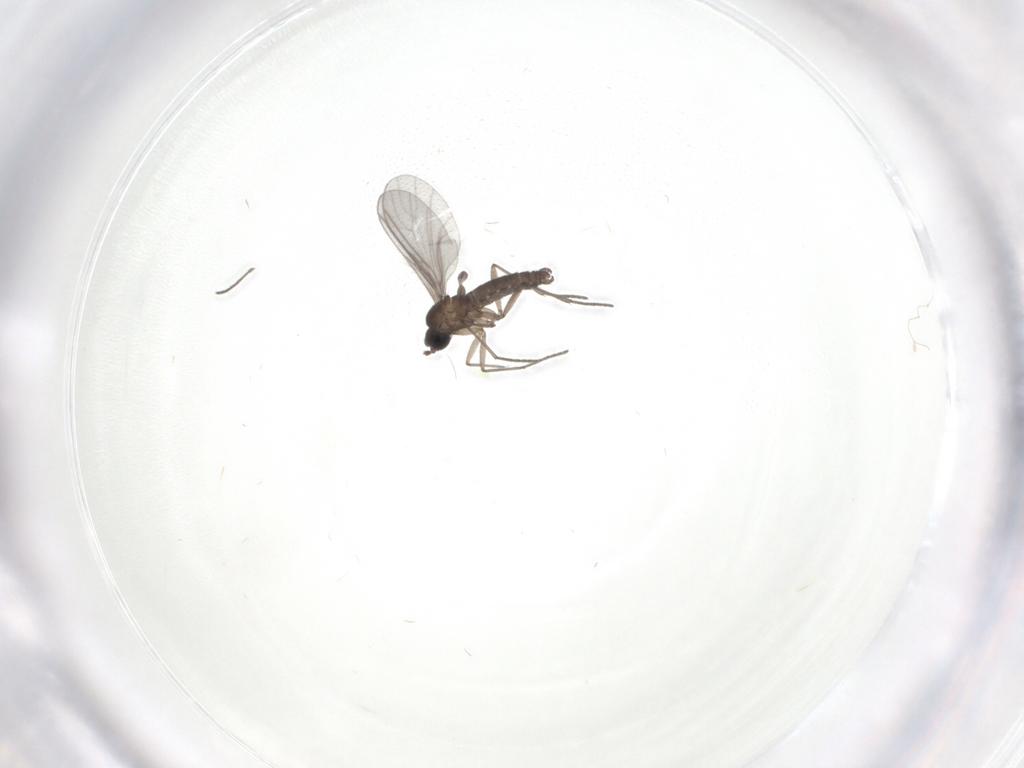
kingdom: Animalia
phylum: Arthropoda
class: Insecta
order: Diptera
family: Sciaridae
